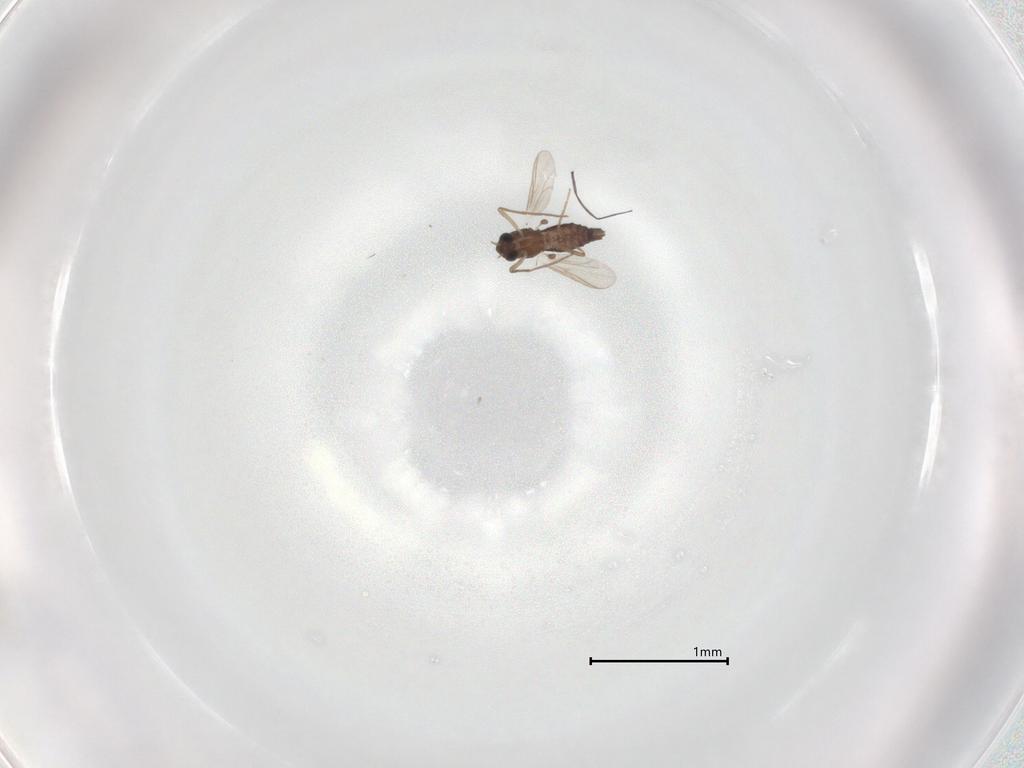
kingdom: Animalia
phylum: Arthropoda
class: Insecta
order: Diptera
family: Chironomidae
